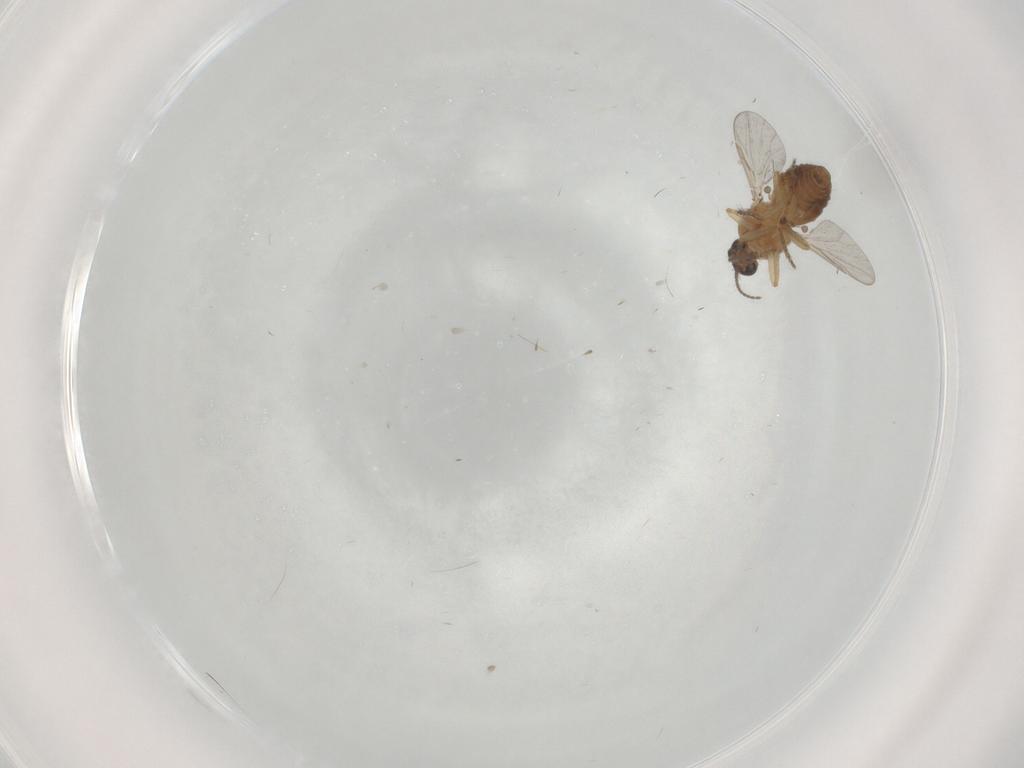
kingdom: Animalia
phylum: Arthropoda
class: Insecta
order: Diptera
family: Ceratopogonidae
